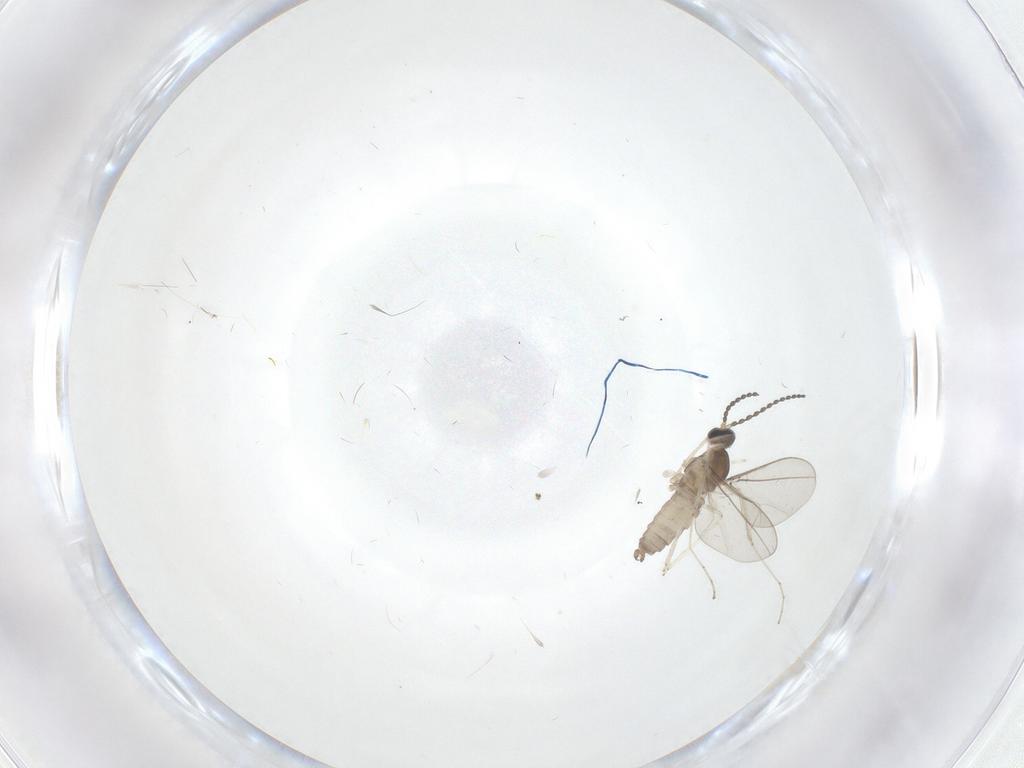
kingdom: Animalia
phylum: Arthropoda
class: Insecta
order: Diptera
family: Cecidomyiidae
